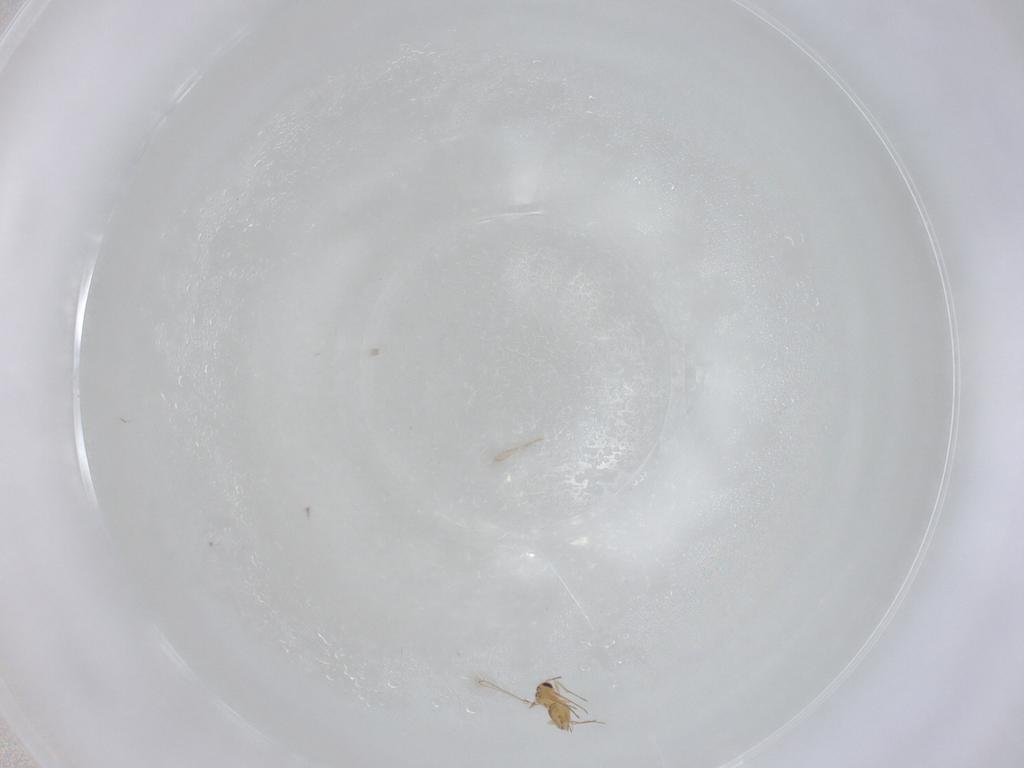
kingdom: Animalia
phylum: Arthropoda
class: Insecta
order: Hymenoptera
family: Mymaridae
